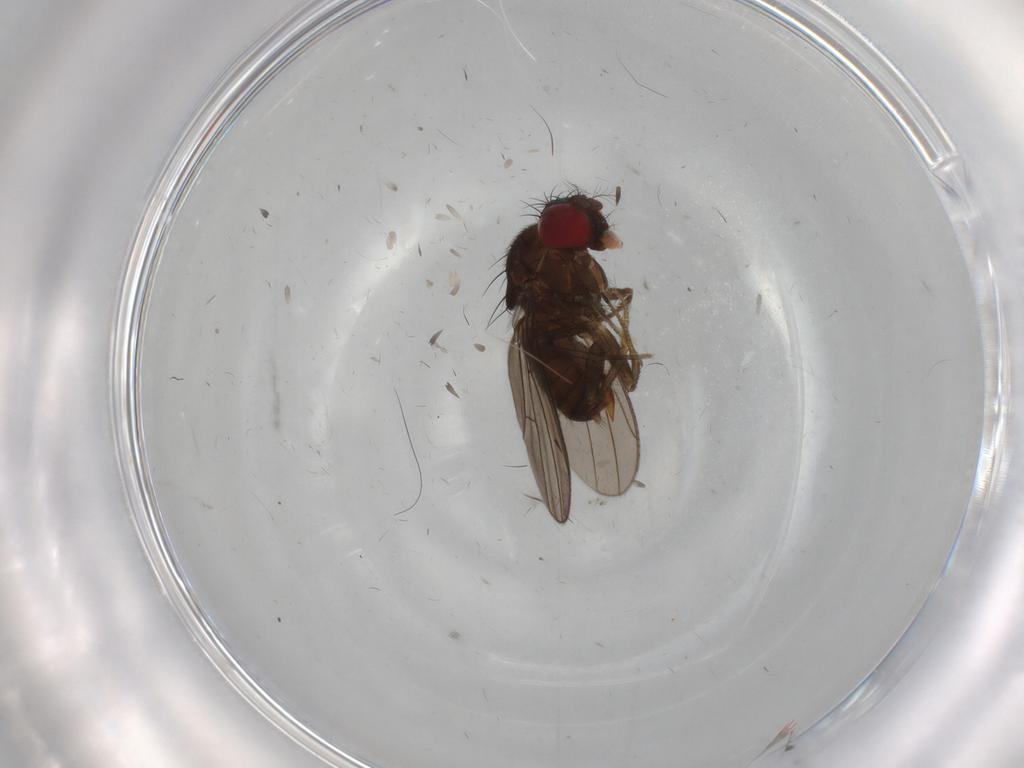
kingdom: Animalia
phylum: Arthropoda
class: Insecta
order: Diptera
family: Drosophilidae
